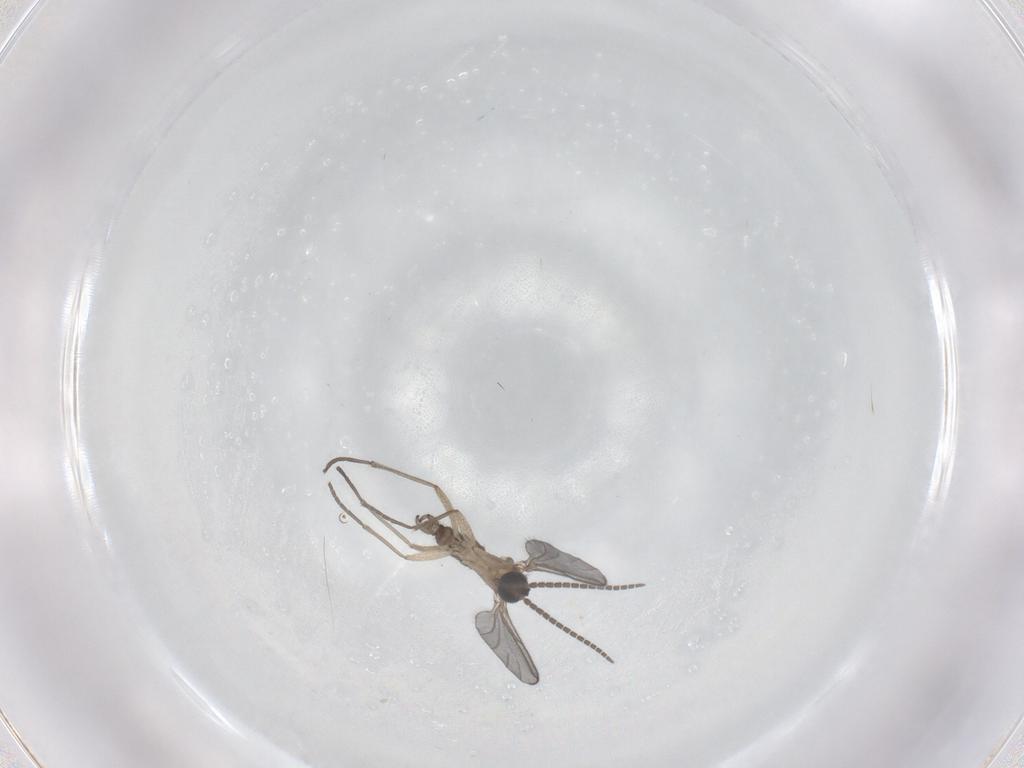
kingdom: Animalia
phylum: Arthropoda
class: Insecta
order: Diptera
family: Sciaridae
